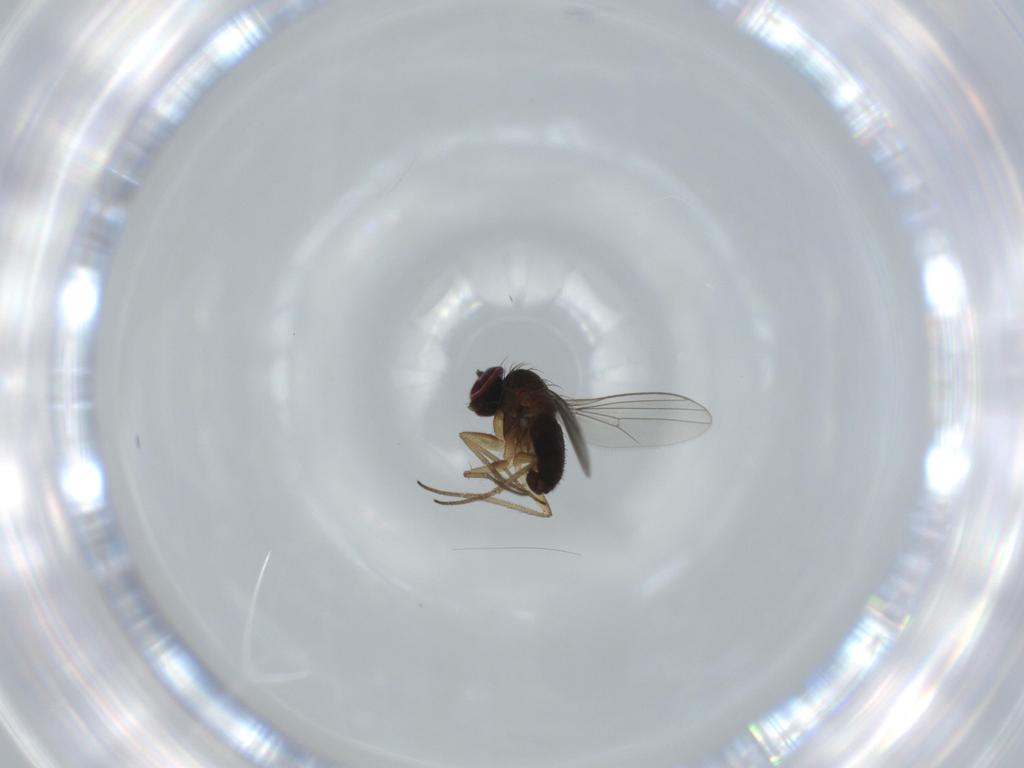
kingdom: Animalia
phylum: Arthropoda
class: Insecta
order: Diptera
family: Dolichopodidae
